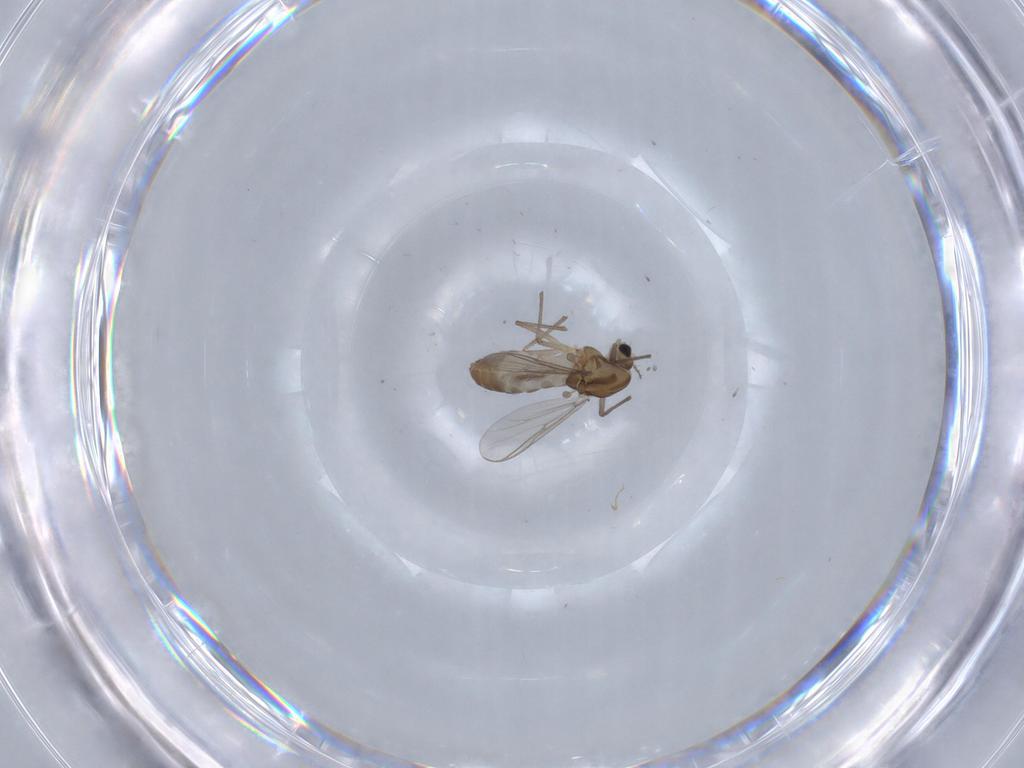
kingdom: Animalia
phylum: Arthropoda
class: Insecta
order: Diptera
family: Chironomidae
